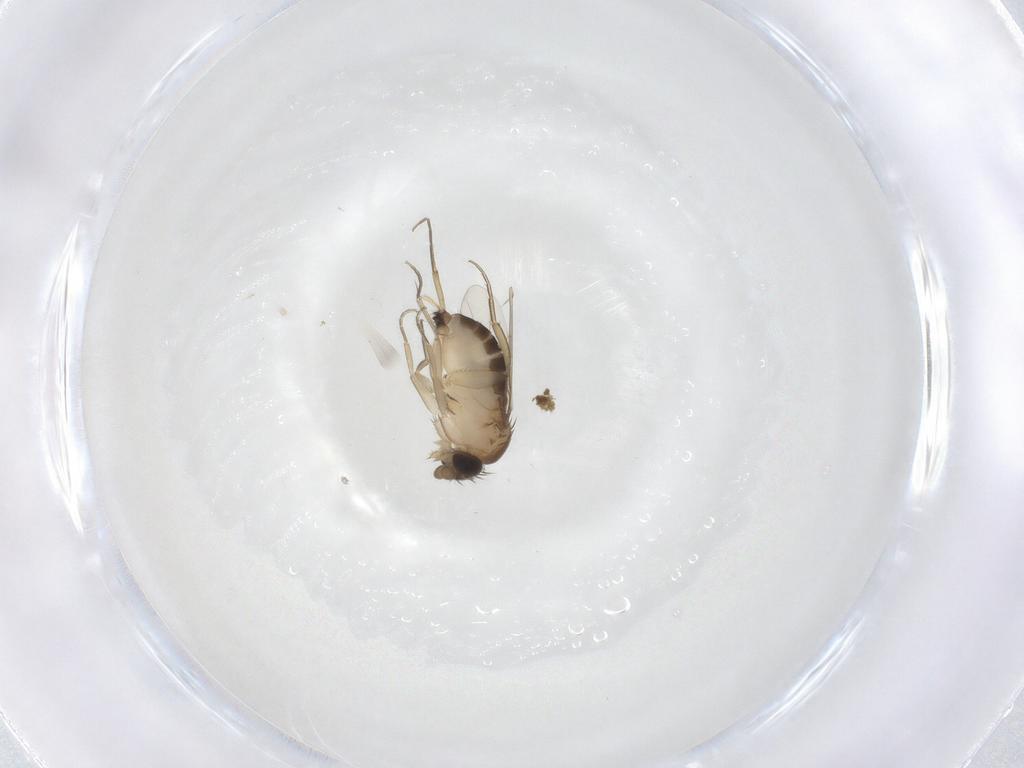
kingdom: Animalia
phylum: Arthropoda
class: Insecta
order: Diptera
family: Phoridae
